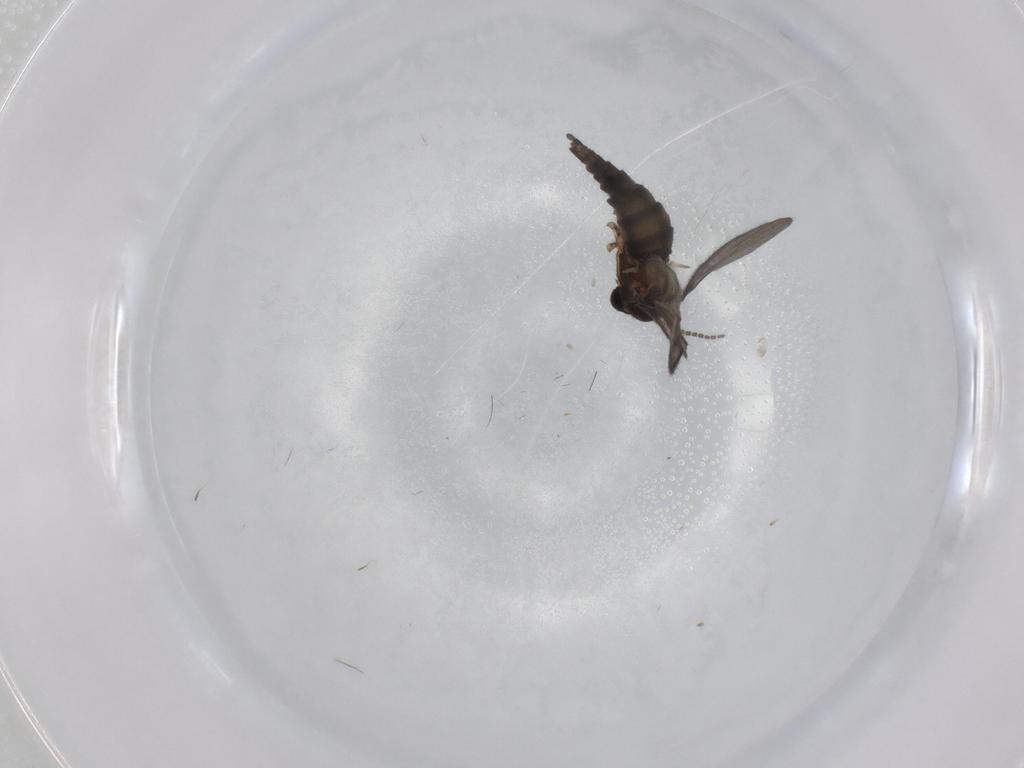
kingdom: Animalia
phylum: Arthropoda
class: Insecta
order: Diptera
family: Sciaridae
